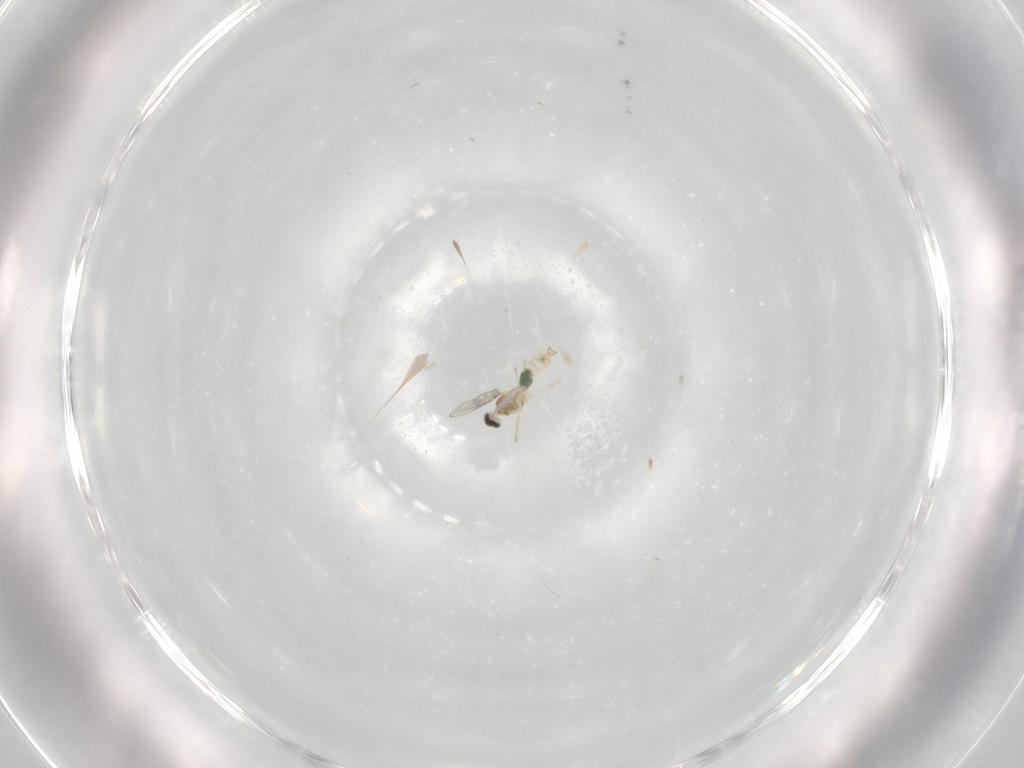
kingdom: Animalia
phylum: Arthropoda
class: Insecta
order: Diptera
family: Cecidomyiidae
